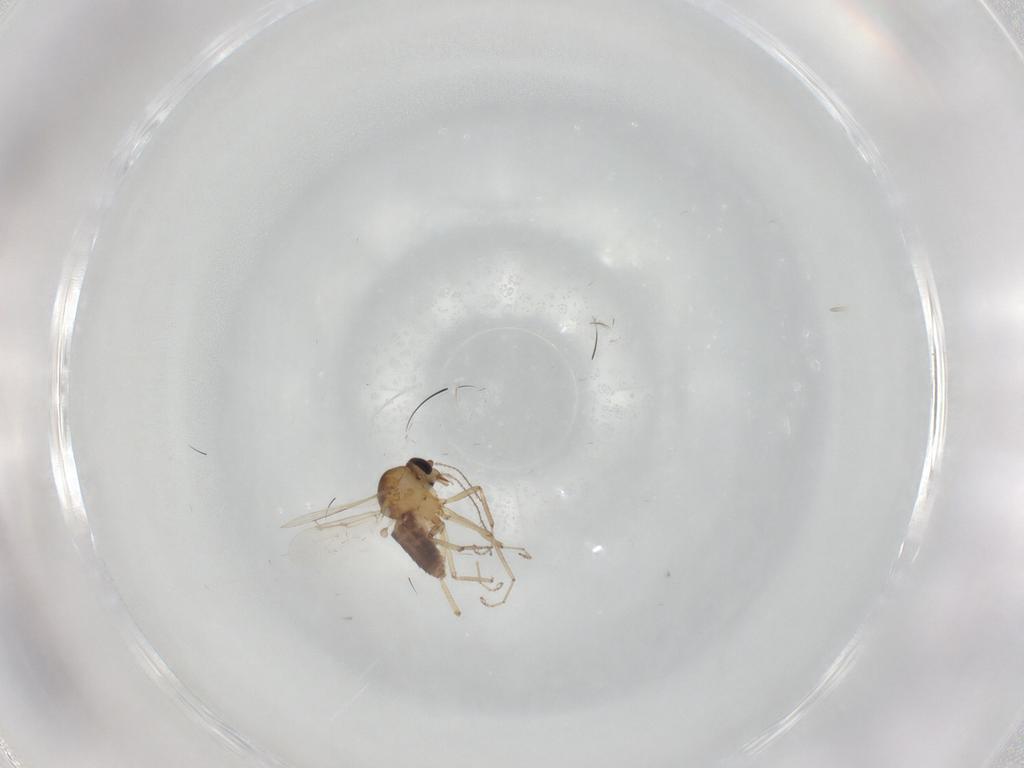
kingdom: Animalia
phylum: Arthropoda
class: Insecta
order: Diptera
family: Ceratopogonidae
